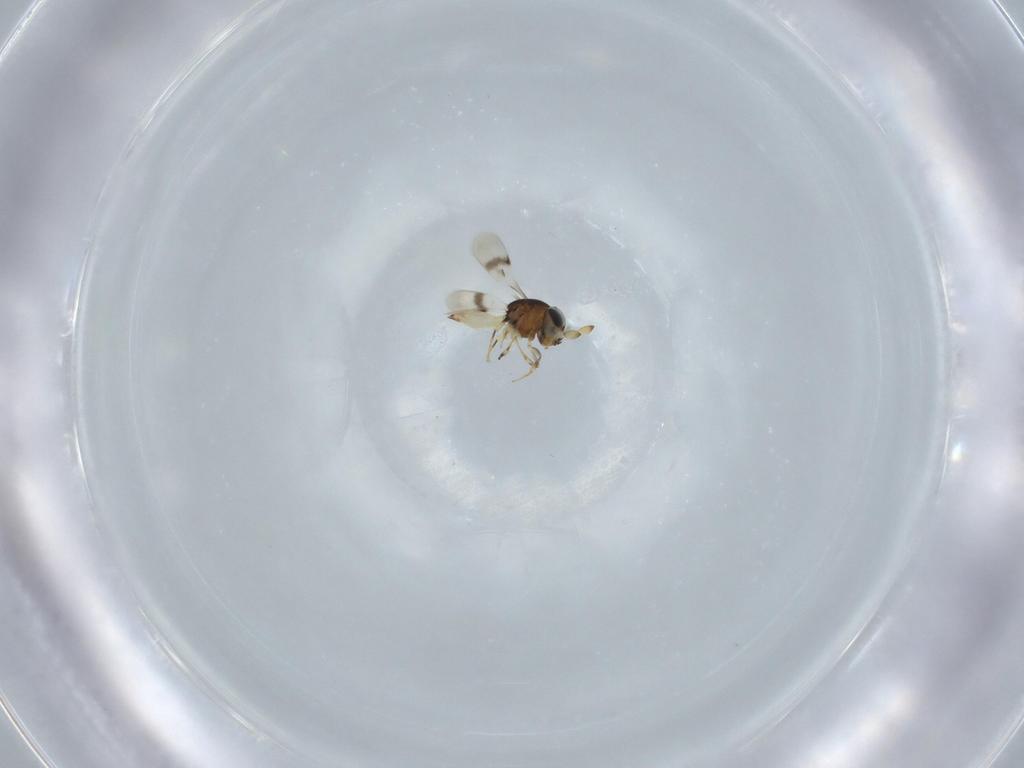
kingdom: Animalia
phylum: Arthropoda
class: Insecta
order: Hymenoptera
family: Scelionidae
